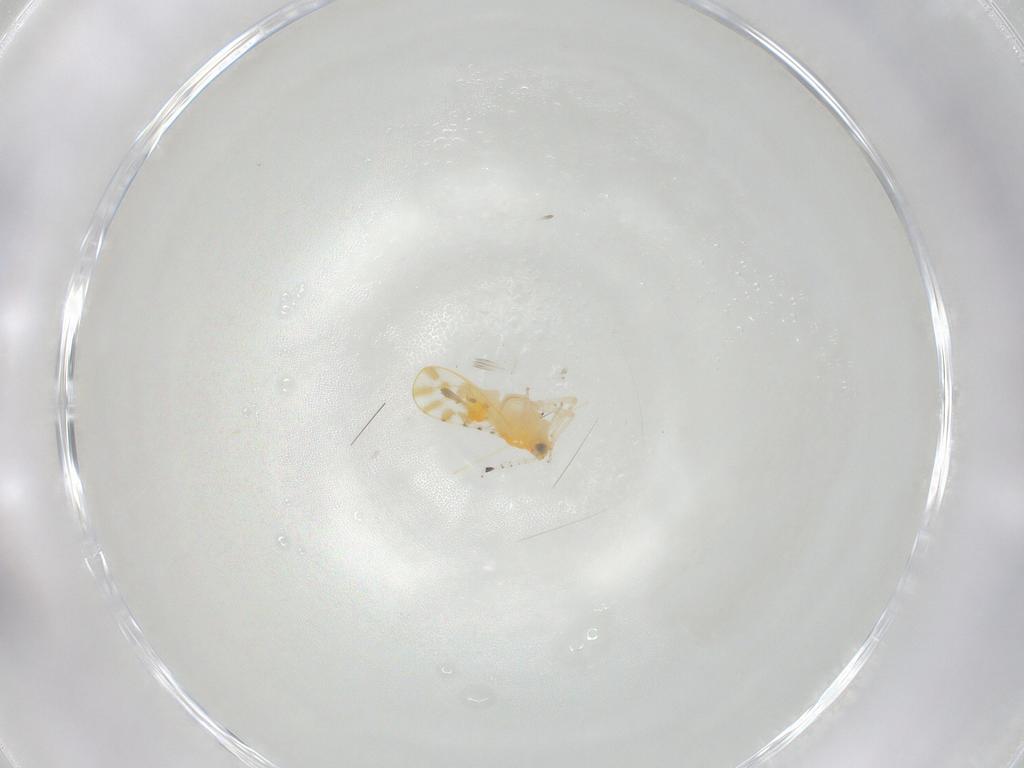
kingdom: Animalia
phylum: Arthropoda
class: Insecta
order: Hemiptera
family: Aphalaridae
